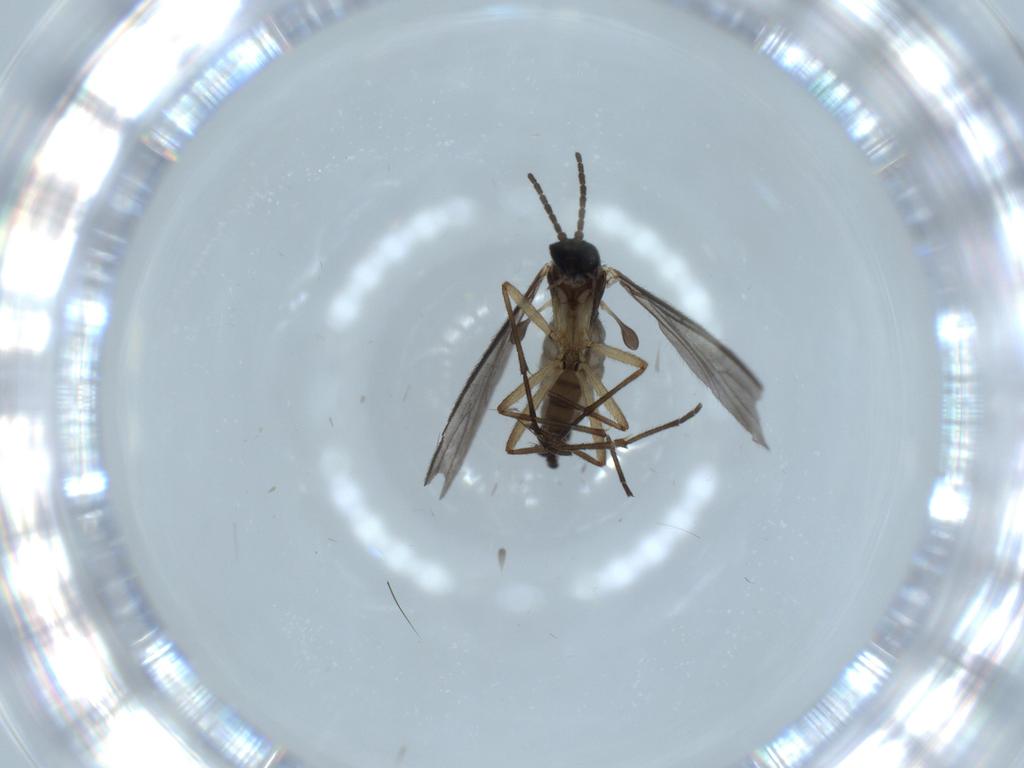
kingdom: Animalia
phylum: Arthropoda
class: Insecta
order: Diptera
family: Sciaridae
